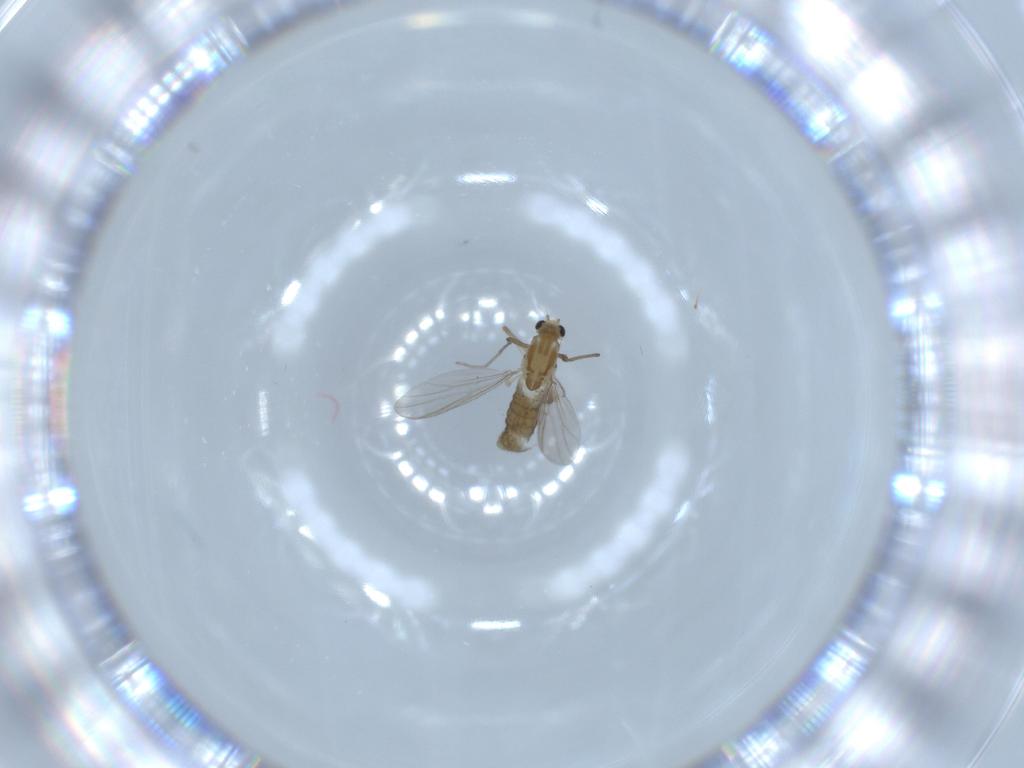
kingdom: Animalia
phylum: Arthropoda
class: Insecta
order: Diptera
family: Chironomidae
